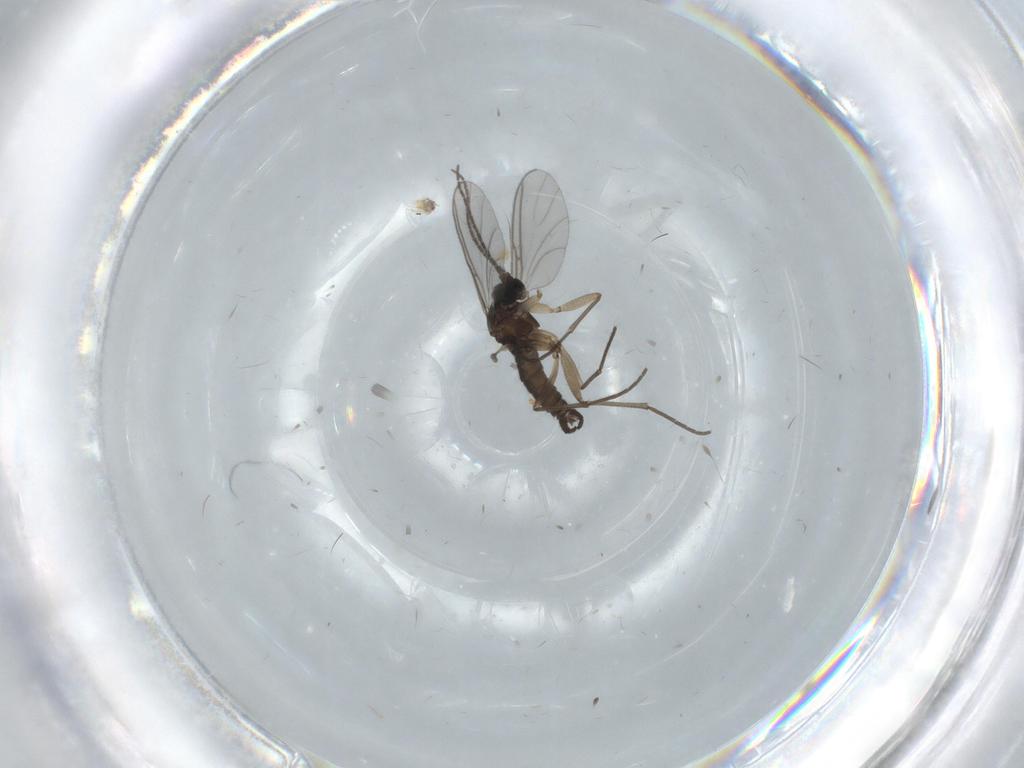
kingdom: Animalia
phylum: Arthropoda
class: Insecta
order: Diptera
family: Sciaridae
